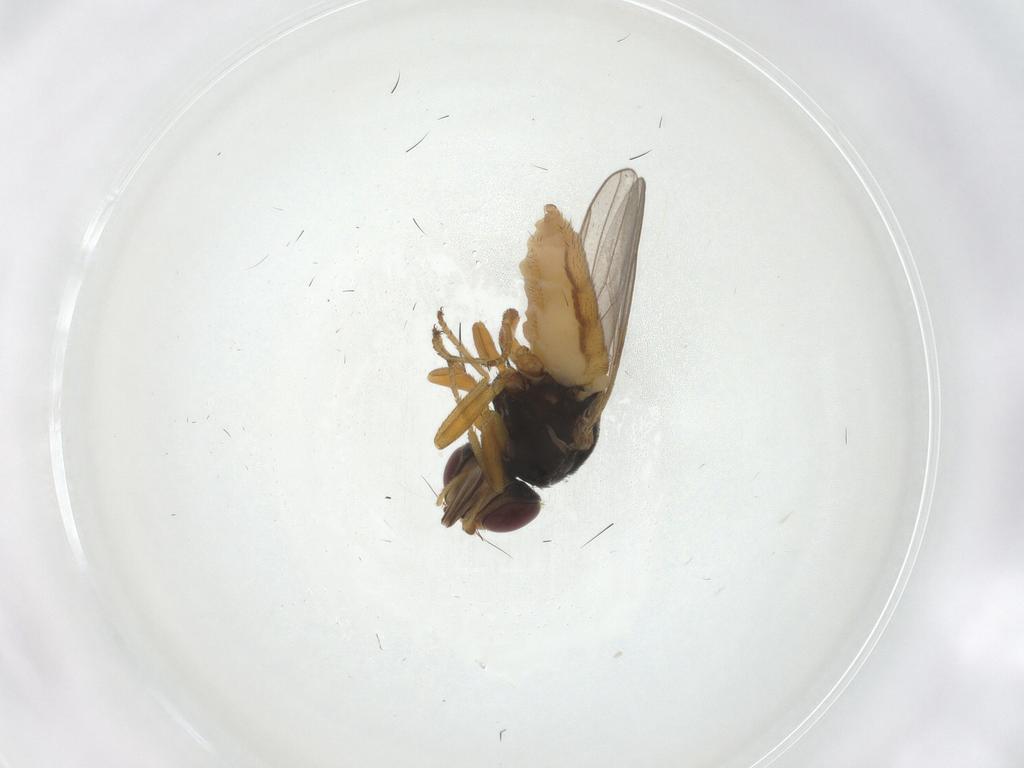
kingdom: Animalia
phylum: Arthropoda
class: Insecta
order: Diptera
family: Chloropidae
